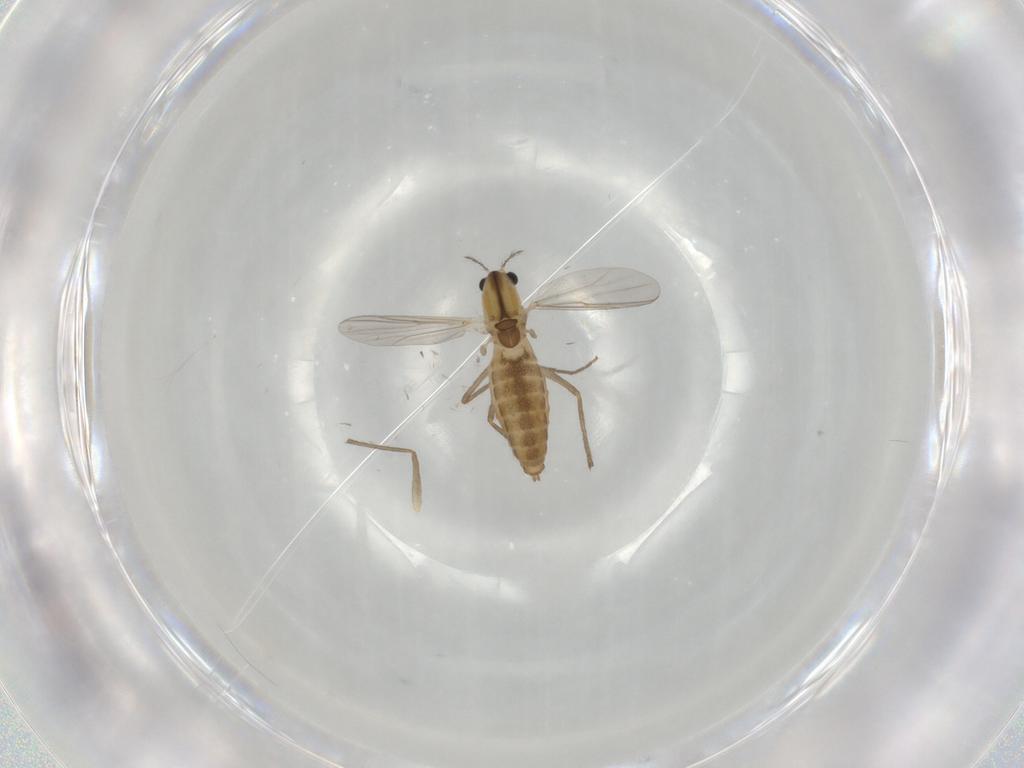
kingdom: Animalia
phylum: Arthropoda
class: Insecta
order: Diptera
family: Chironomidae
